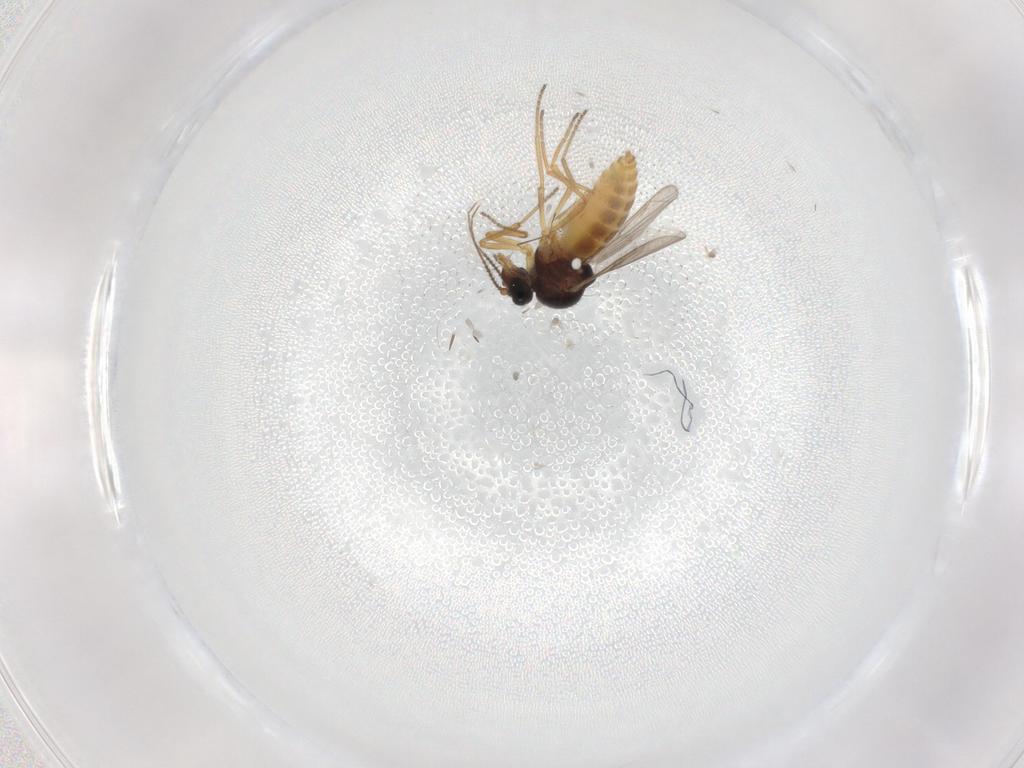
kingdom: Animalia
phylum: Arthropoda
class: Insecta
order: Diptera
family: Ceratopogonidae
